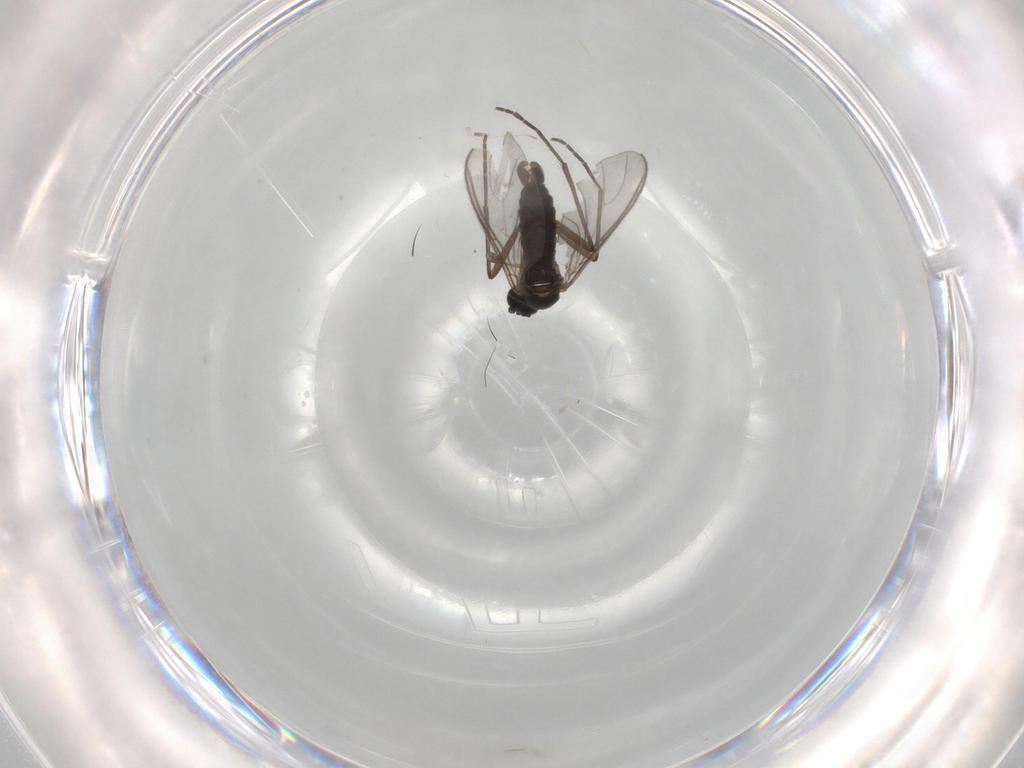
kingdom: Animalia
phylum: Arthropoda
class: Insecta
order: Diptera
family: Sciaridae
